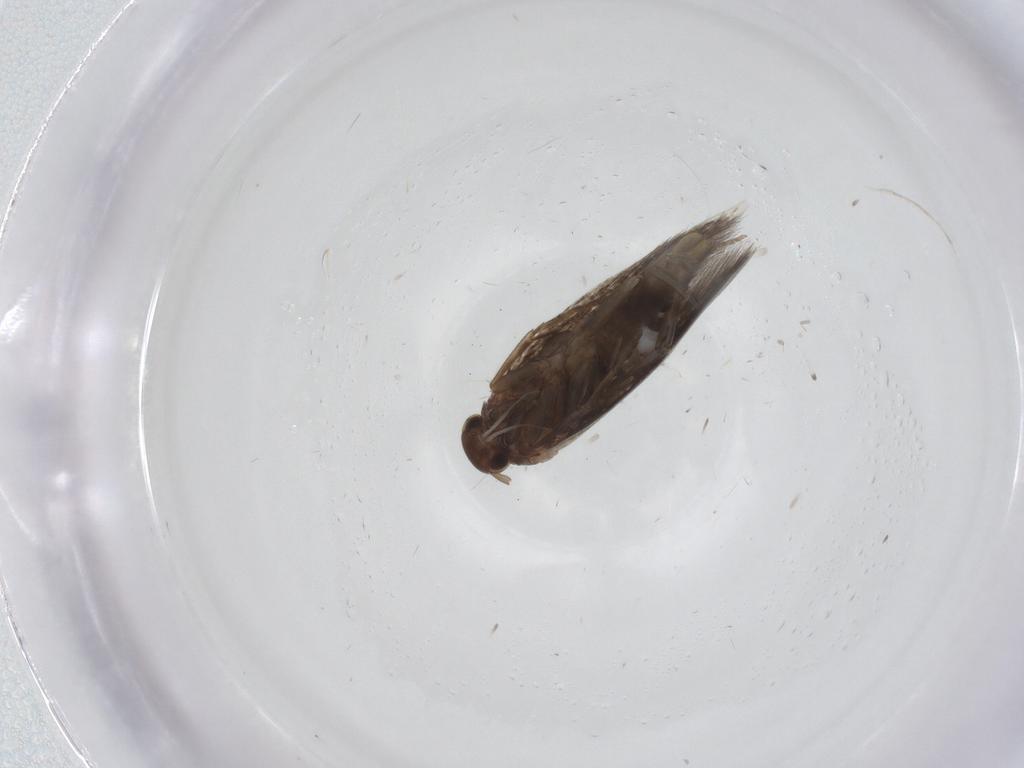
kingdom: Animalia
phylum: Arthropoda
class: Insecta
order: Lepidoptera
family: Elachistidae
